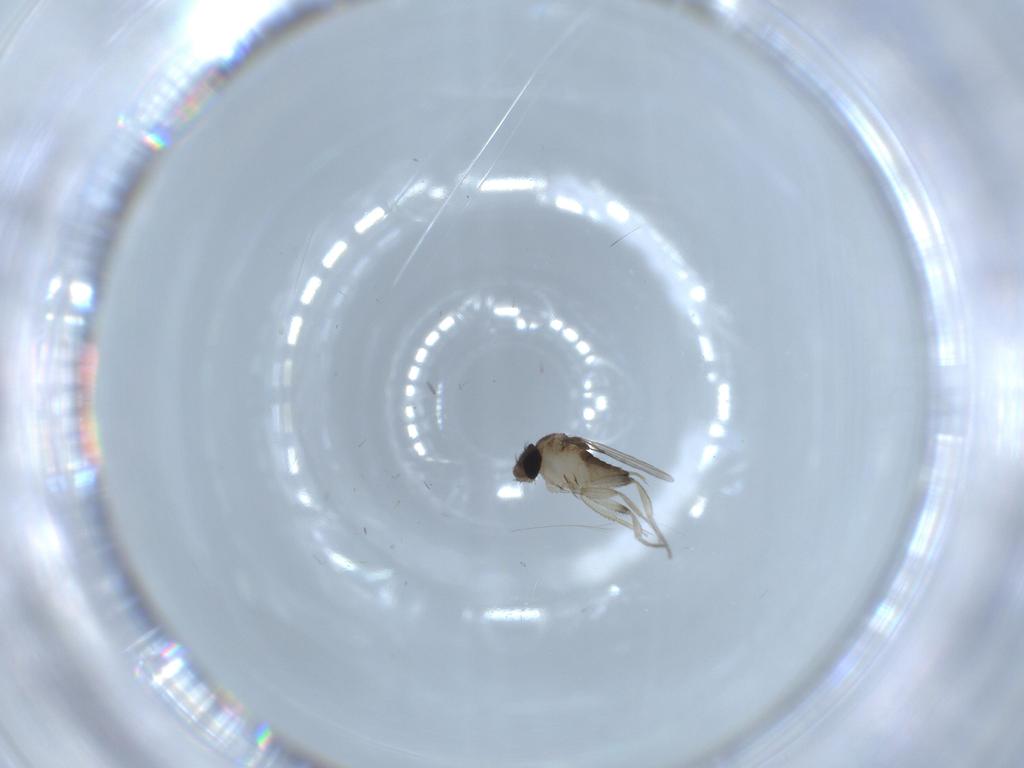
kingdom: Animalia
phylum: Arthropoda
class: Insecta
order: Diptera
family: Phoridae
